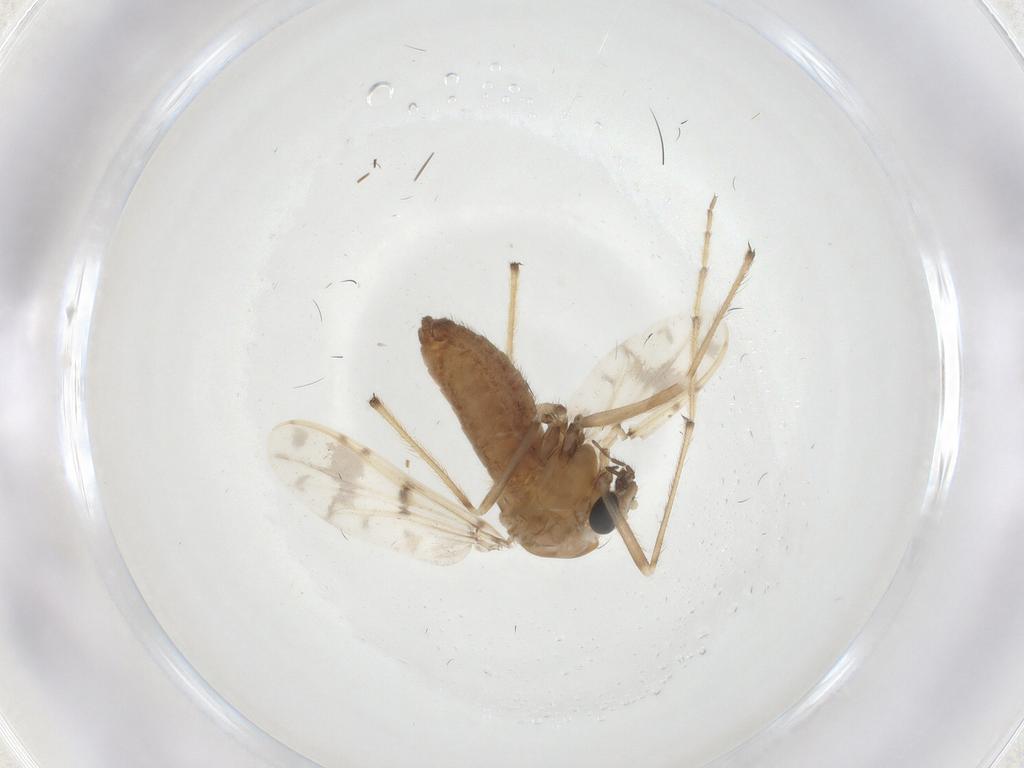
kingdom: Animalia
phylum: Arthropoda
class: Insecta
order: Diptera
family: Chironomidae
